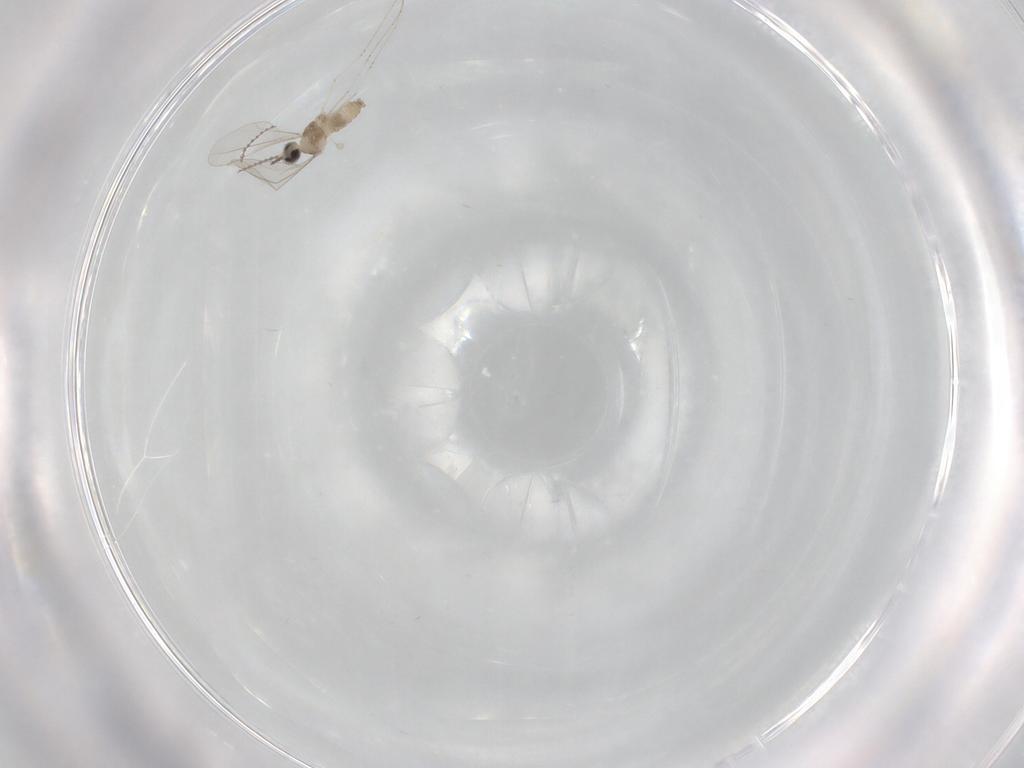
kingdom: Animalia
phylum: Arthropoda
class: Insecta
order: Diptera
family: Cecidomyiidae
